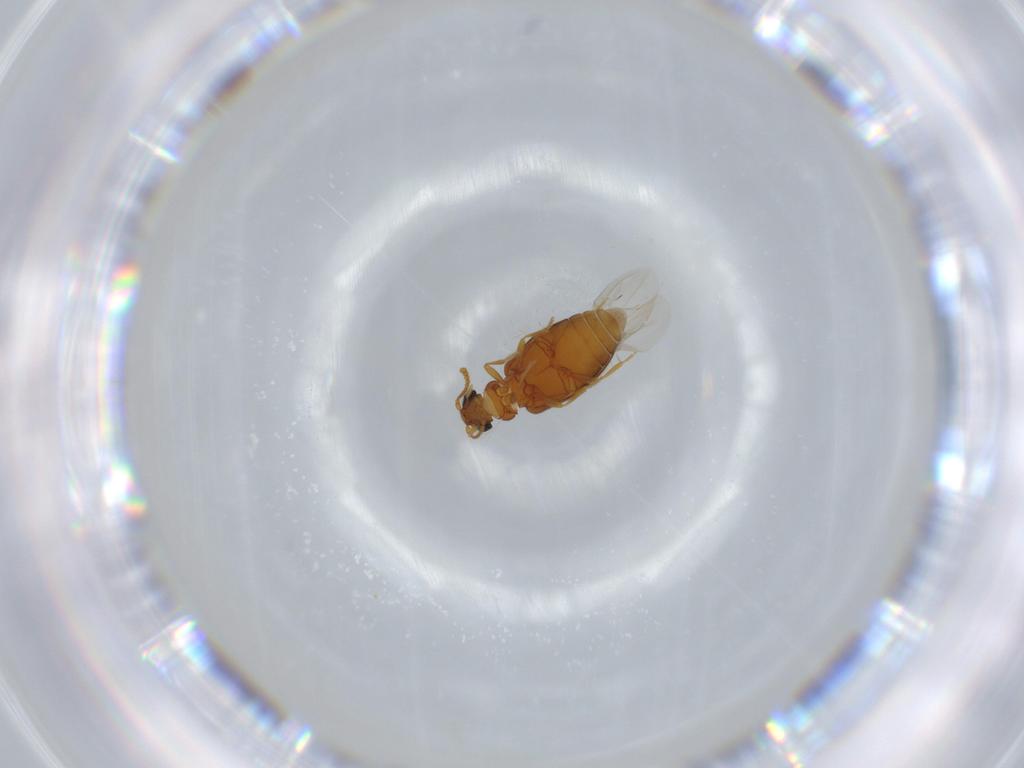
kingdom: Animalia
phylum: Arthropoda
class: Insecta
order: Coleoptera
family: Aderidae
